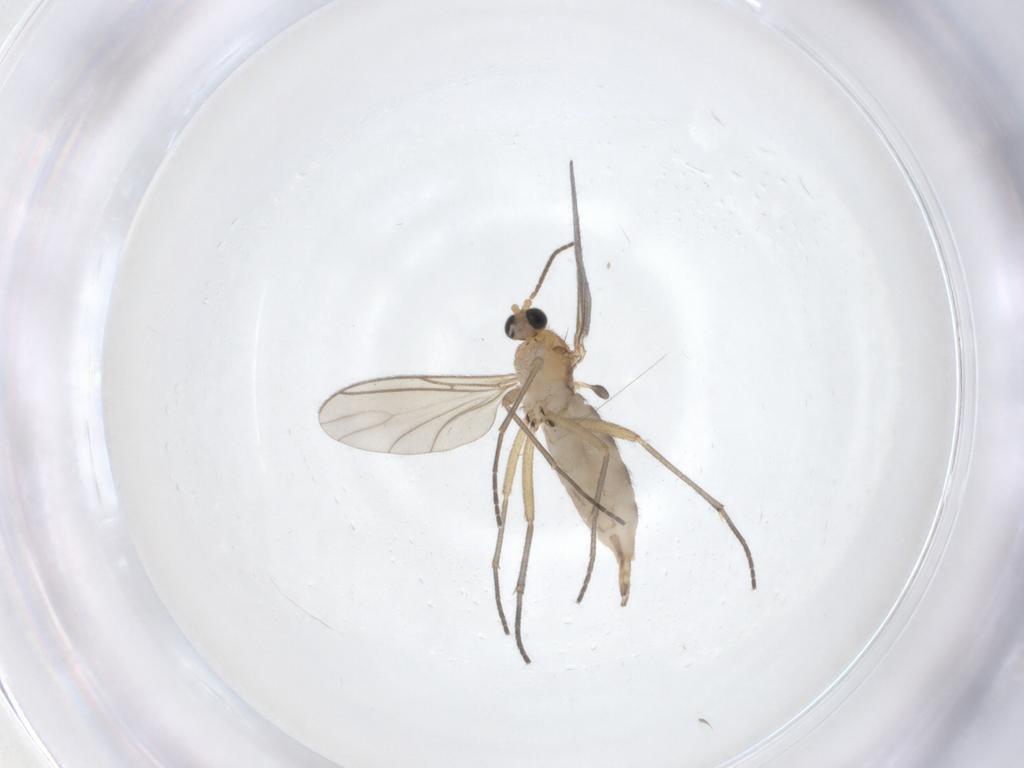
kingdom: Animalia
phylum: Arthropoda
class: Insecta
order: Diptera
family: Sciaridae
